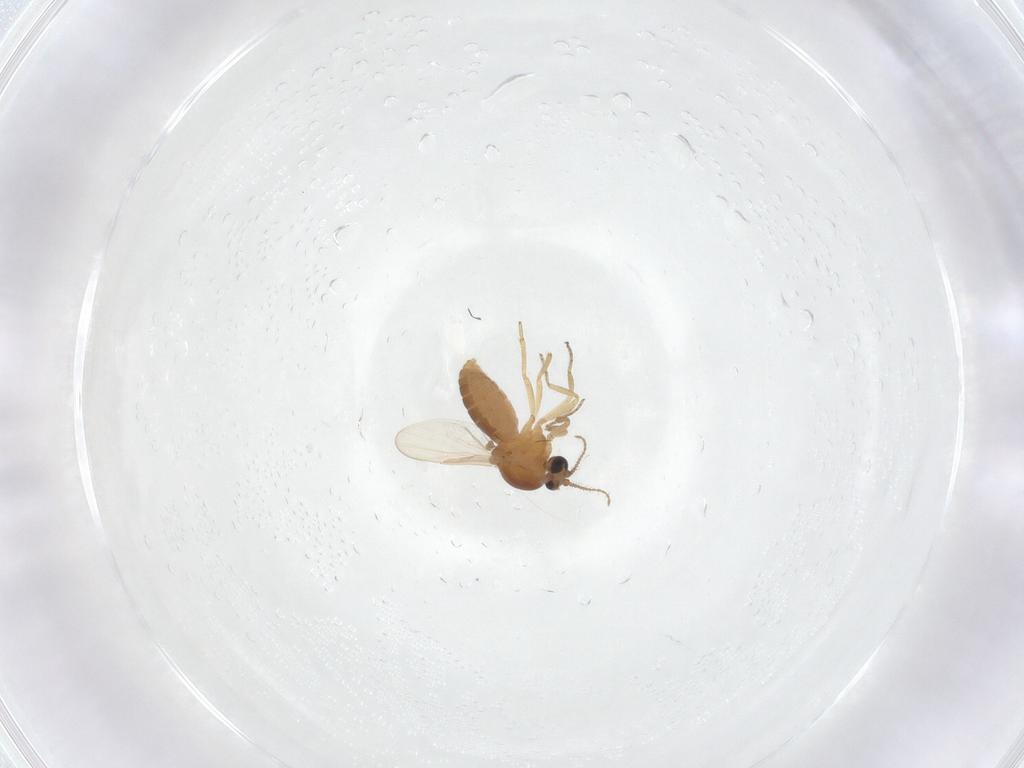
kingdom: Animalia
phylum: Arthropoda
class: Insecta
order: Diptera
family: Ceratopogonidae
